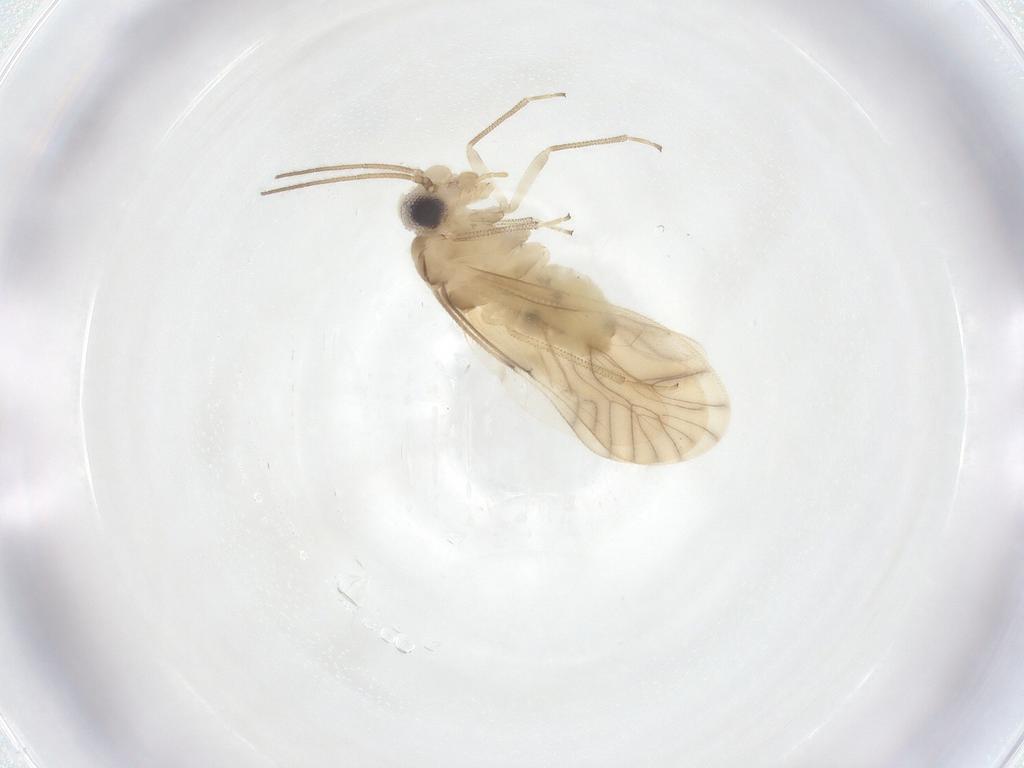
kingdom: Animalia
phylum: Arthropoda
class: Insecta
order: Psocodea
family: Caeciliusidae
